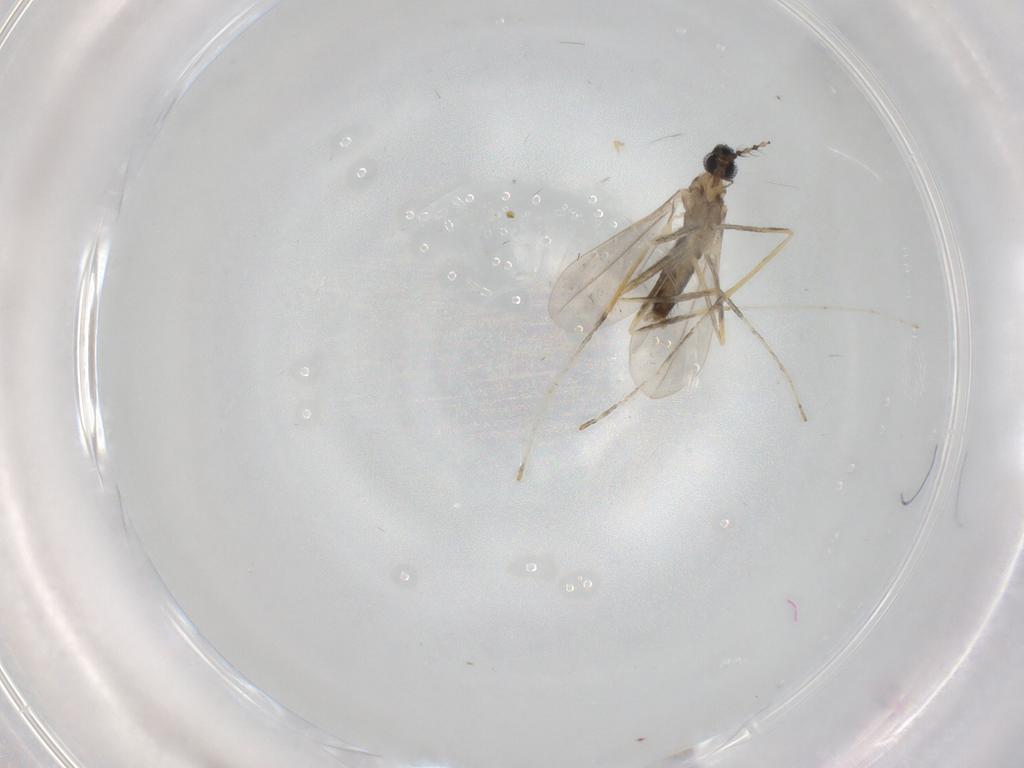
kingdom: Animalia
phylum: Arthropoda
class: Insecta
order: Diptera
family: Cecidomyiidae
